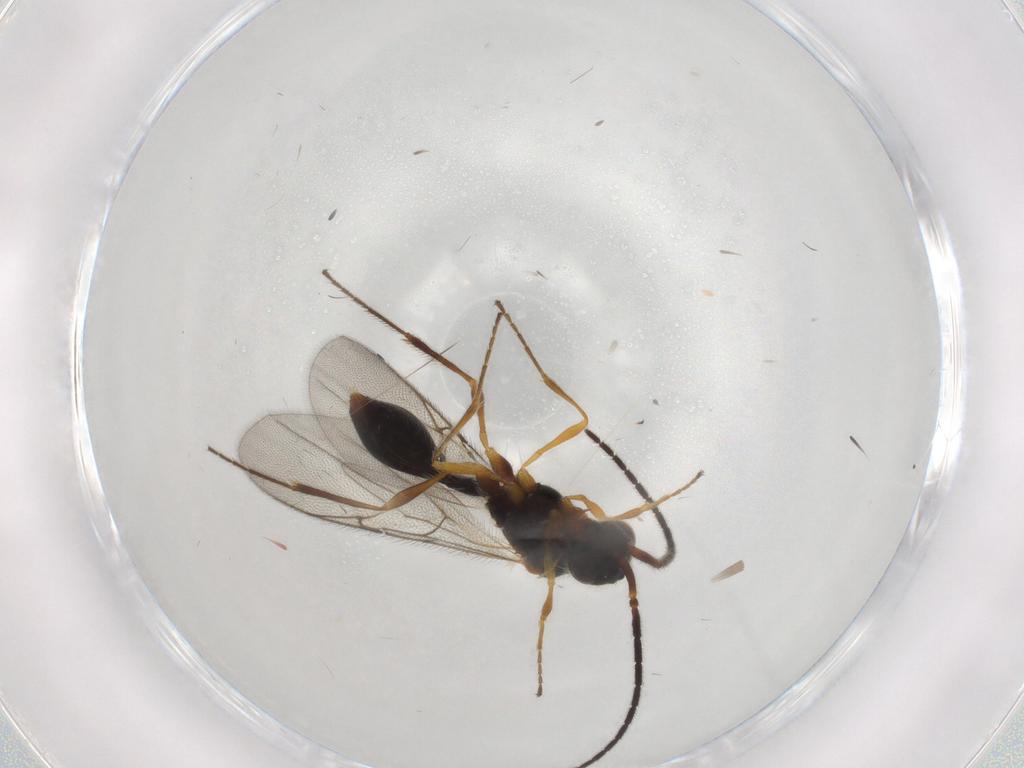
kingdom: Animalia
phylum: Arthropoda
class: Insecta
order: Hymenoptera
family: Diapriidae
